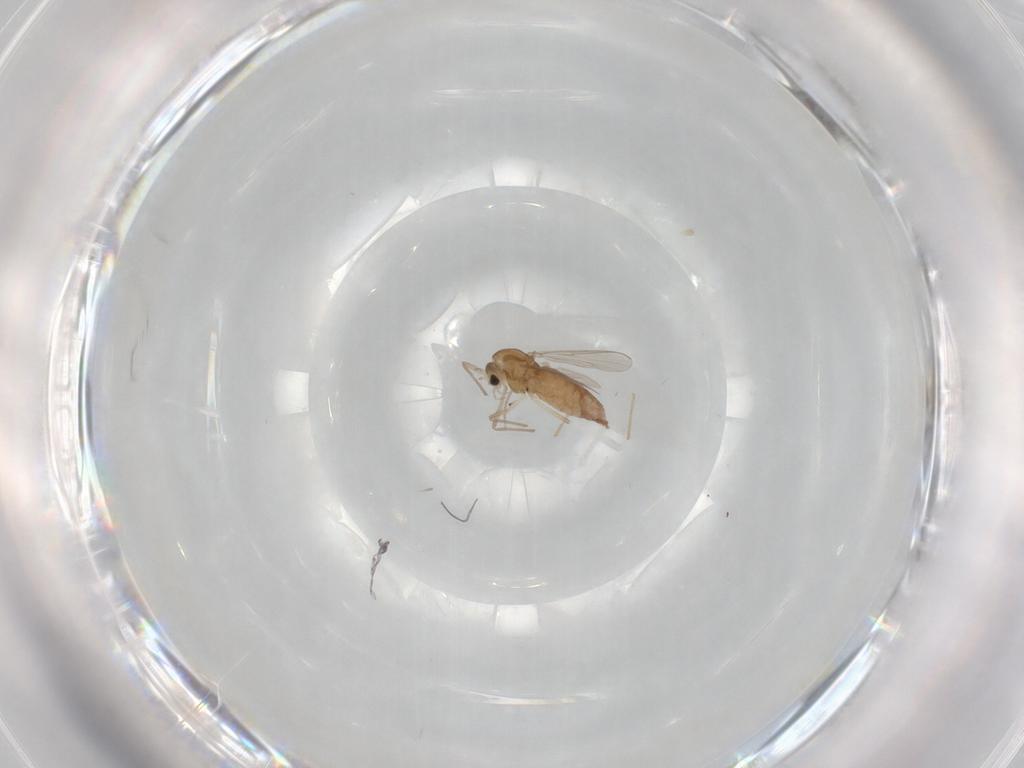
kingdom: Animalia
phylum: Arthropoda
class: Insecta
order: Diptera
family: Chironomidae
